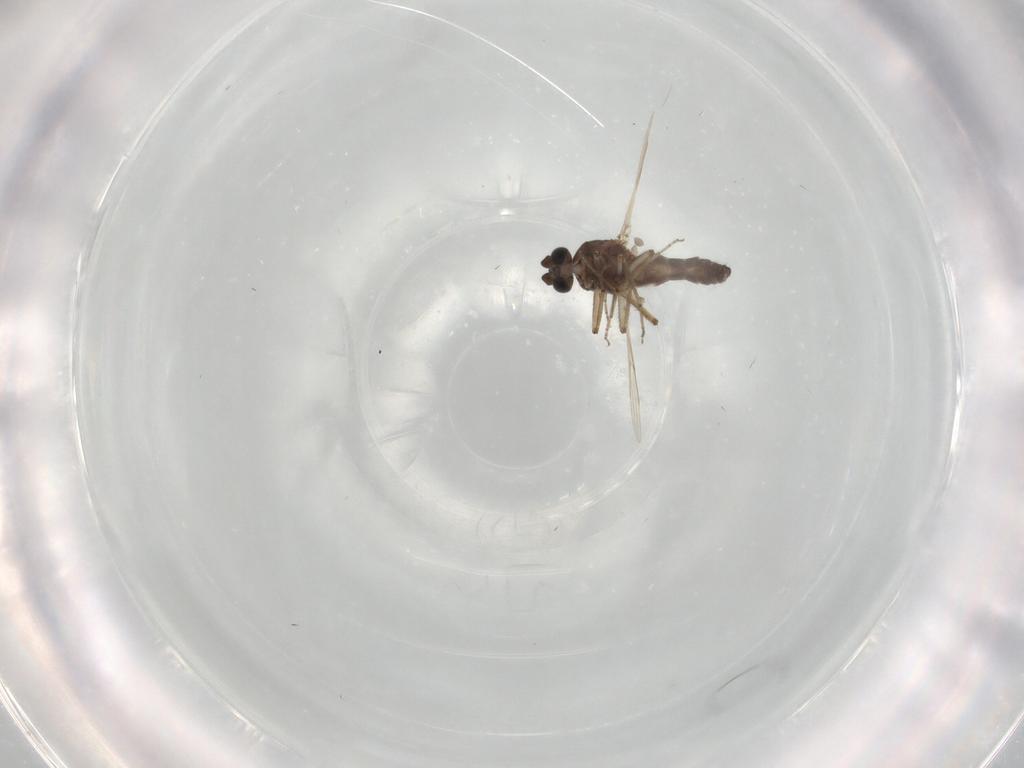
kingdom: Animalia
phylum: Arthropoda
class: Insecta
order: Diptera
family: Ceratopogonidae
